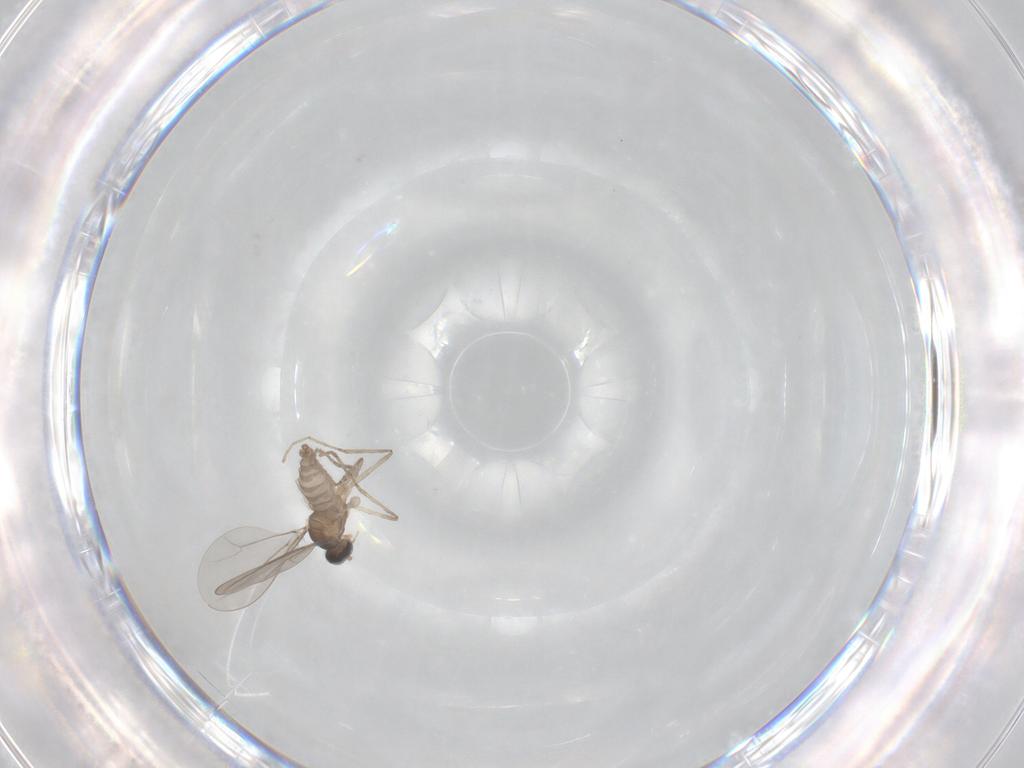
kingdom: Animalia
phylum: Arthropoda
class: Insecta
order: Diptera
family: Cecidomyiidae
